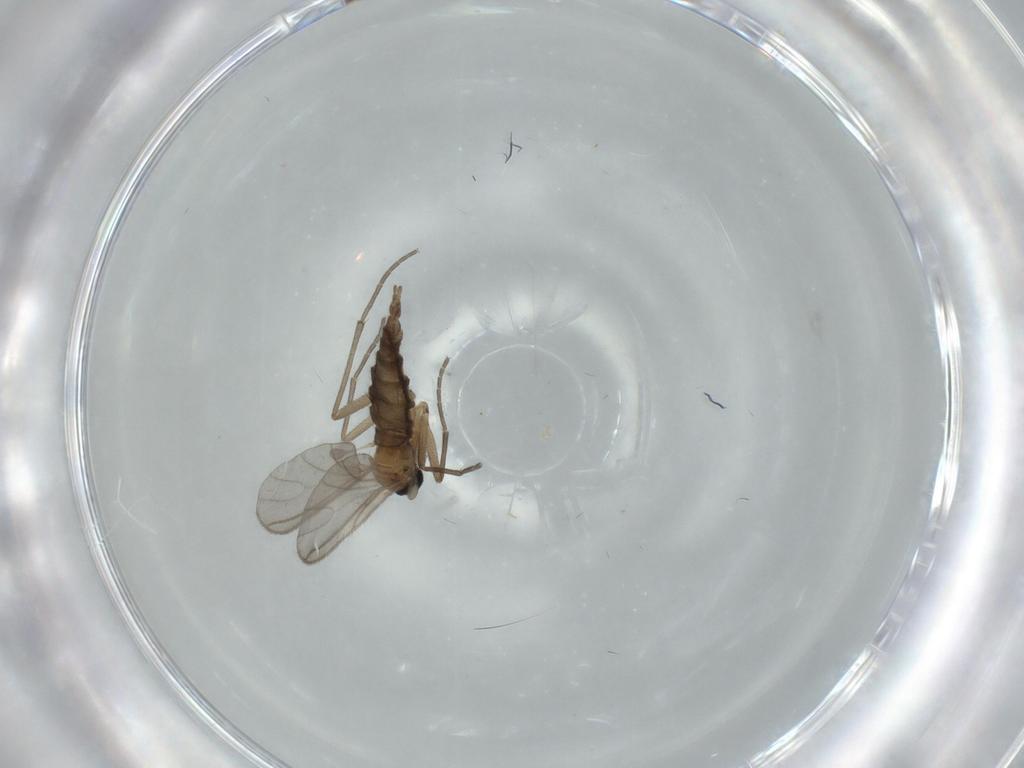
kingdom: Animalia
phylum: Arthropoda
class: Insecta
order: Diptera
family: Sciaridae
